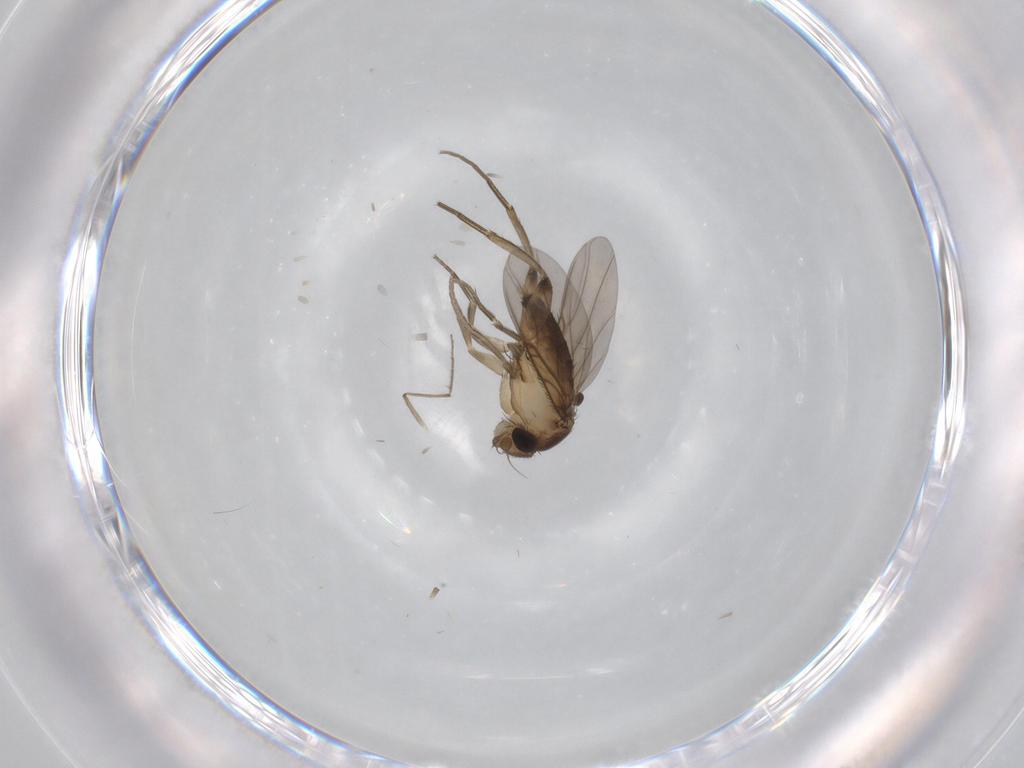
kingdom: Animalia
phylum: Arthropoda
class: Insecta
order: Diptera
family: Phoridae
